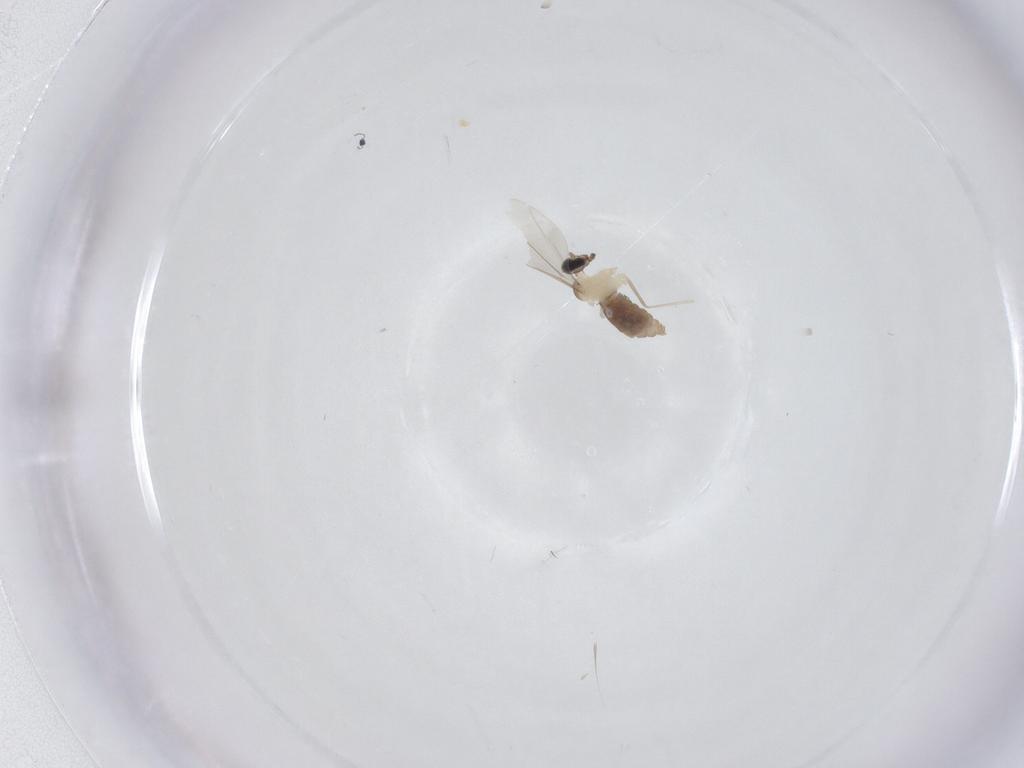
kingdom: Animalia
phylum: Arthropoda
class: Insecta
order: Diptera
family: Cecidomyiidae
